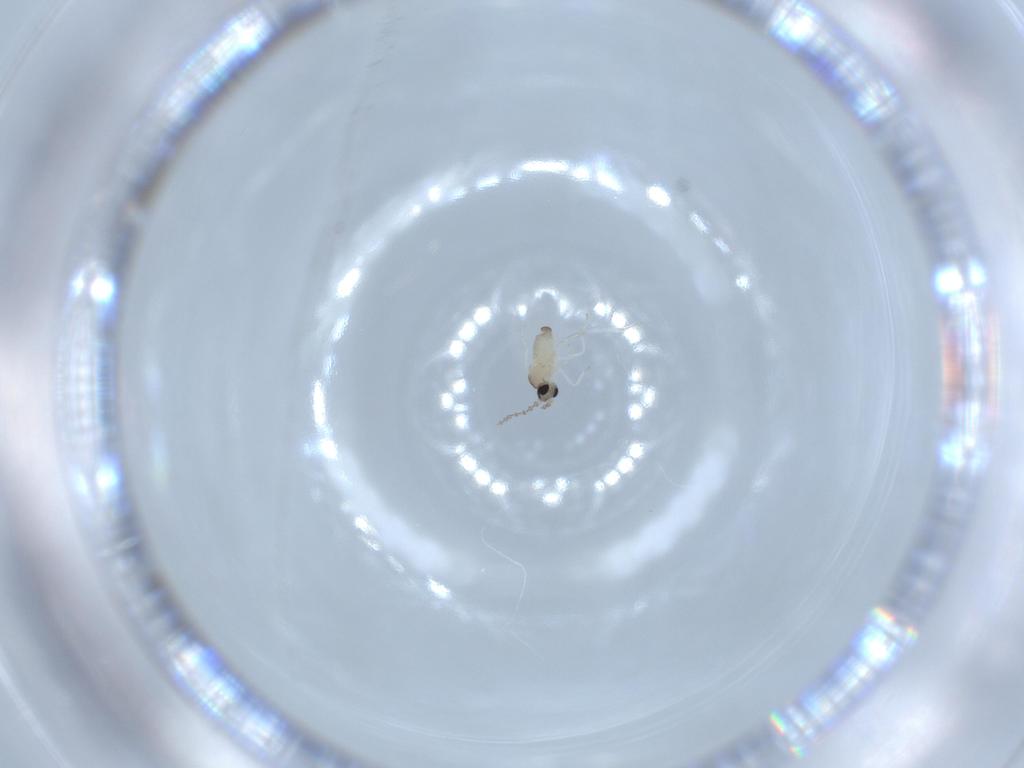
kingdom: Animalia
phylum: Arthropoda
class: Insecta
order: Diptera
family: Cecidomyiidae
